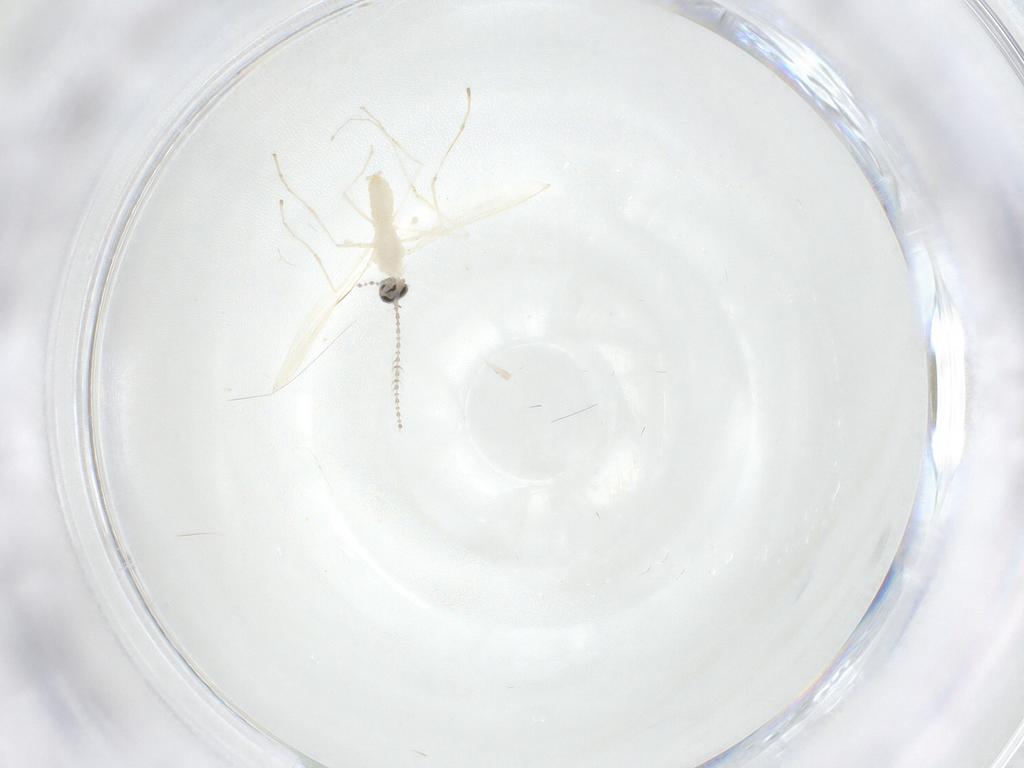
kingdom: Animalia
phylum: Arthropoda
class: Insecta
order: Diptera
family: Cecidomyiidae
